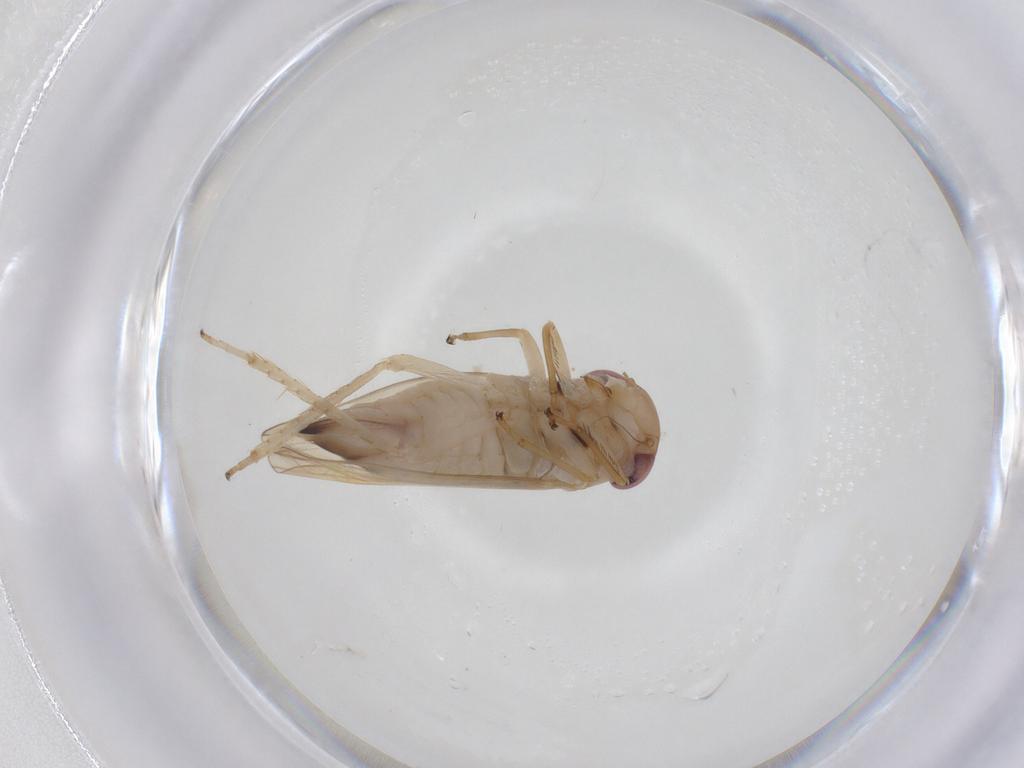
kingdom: Animalia
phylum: Arthropoda
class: Insecta
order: Hemiptera
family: Cicadellidae
